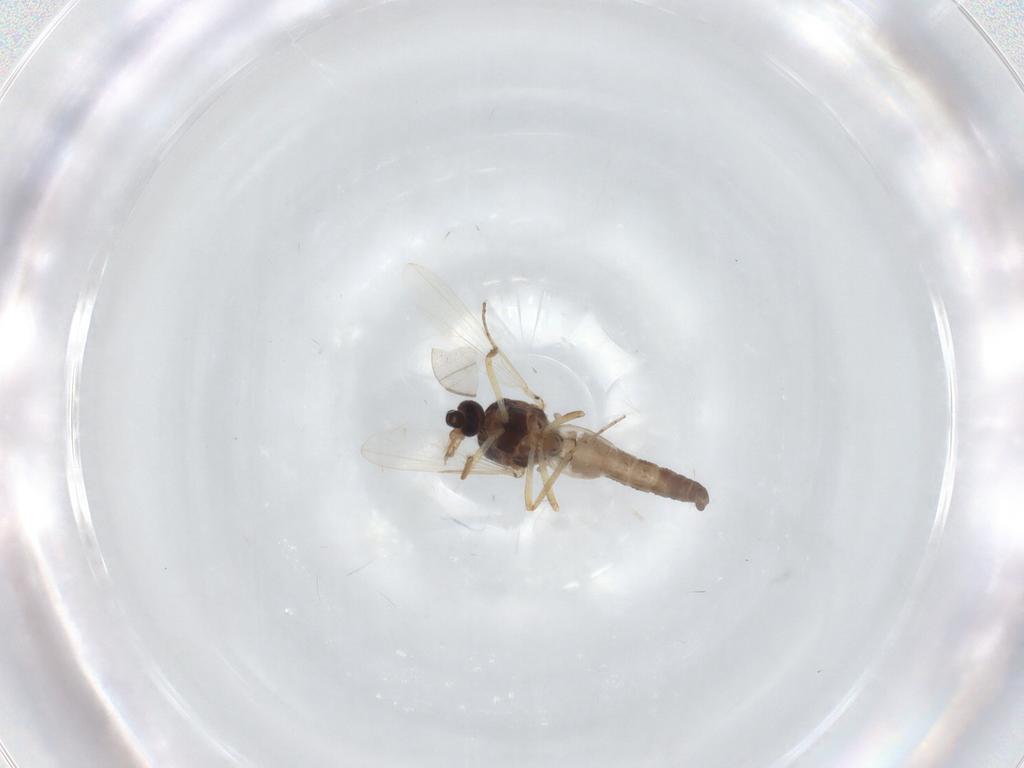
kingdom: Animalia
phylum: Arthropoda
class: Insecta
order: Diptera
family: Ceratopogonidae
